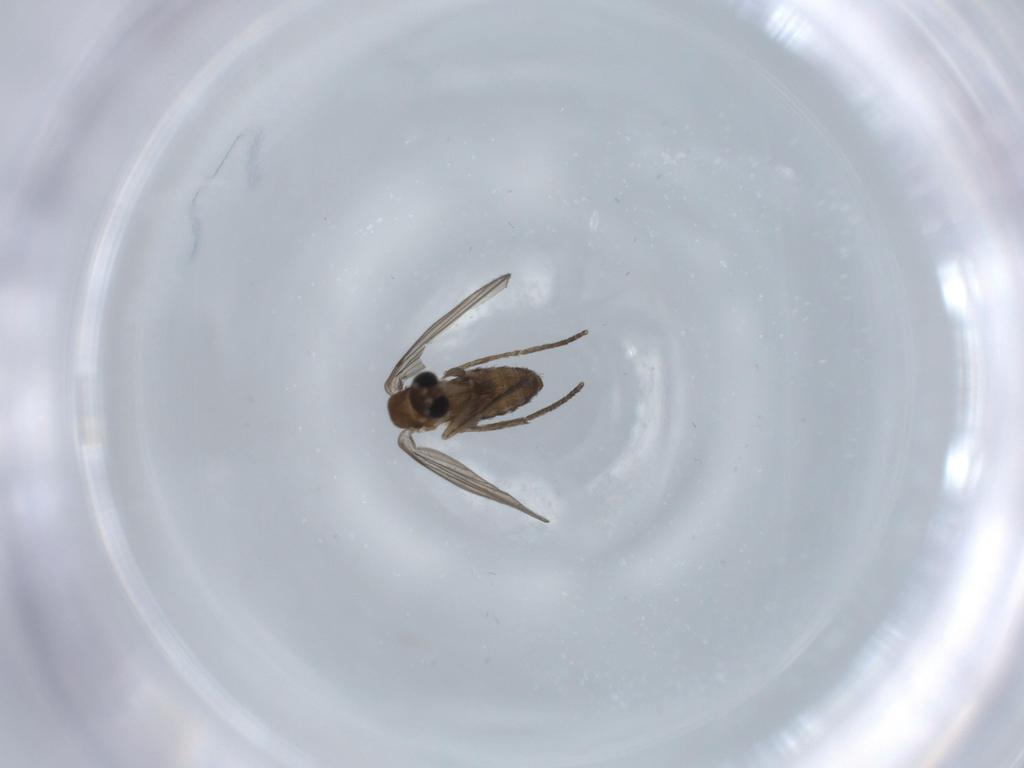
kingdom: Animalia
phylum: Arthropoda
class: Insecta
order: Diptera
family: Psychodidae
